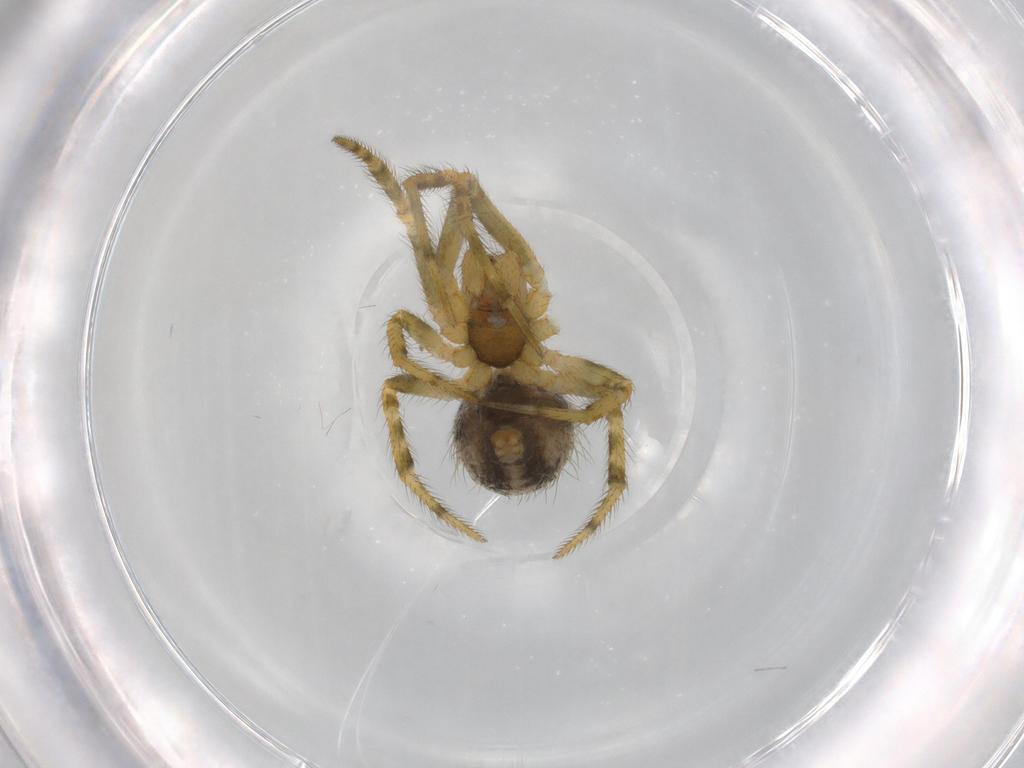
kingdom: Animalia
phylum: Arthropoda
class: Arachnida
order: Araneae
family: Theridiidae
